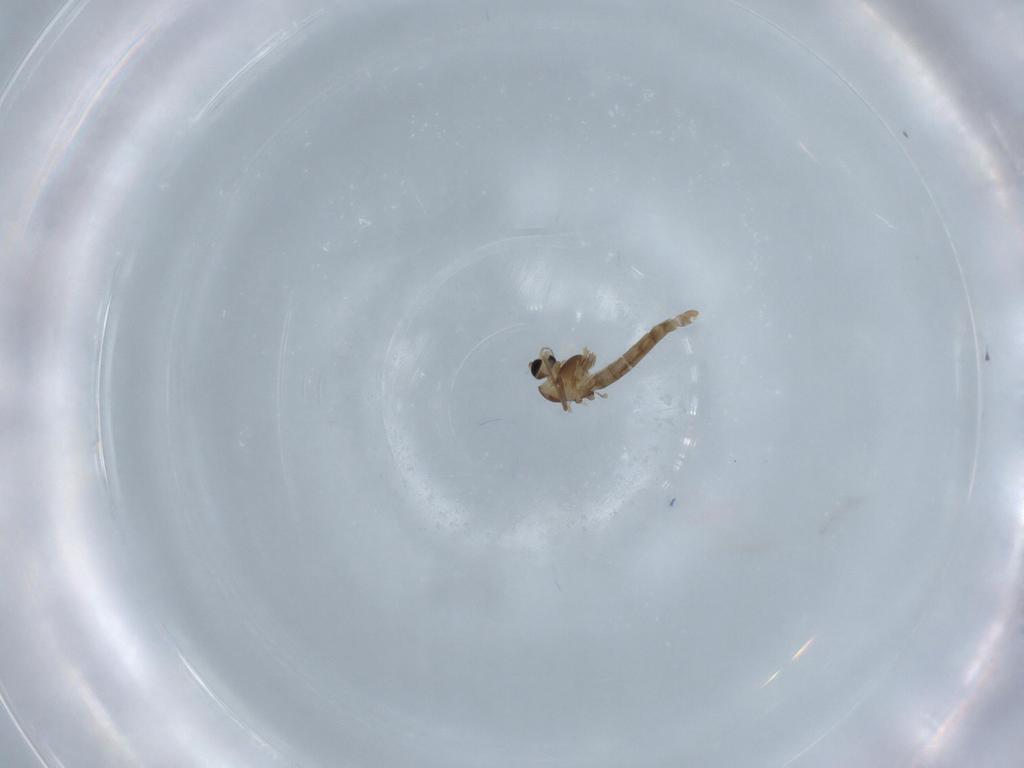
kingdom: Animalia
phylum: Arthropoda
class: Insecta
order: Diptera
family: Chironomidae
